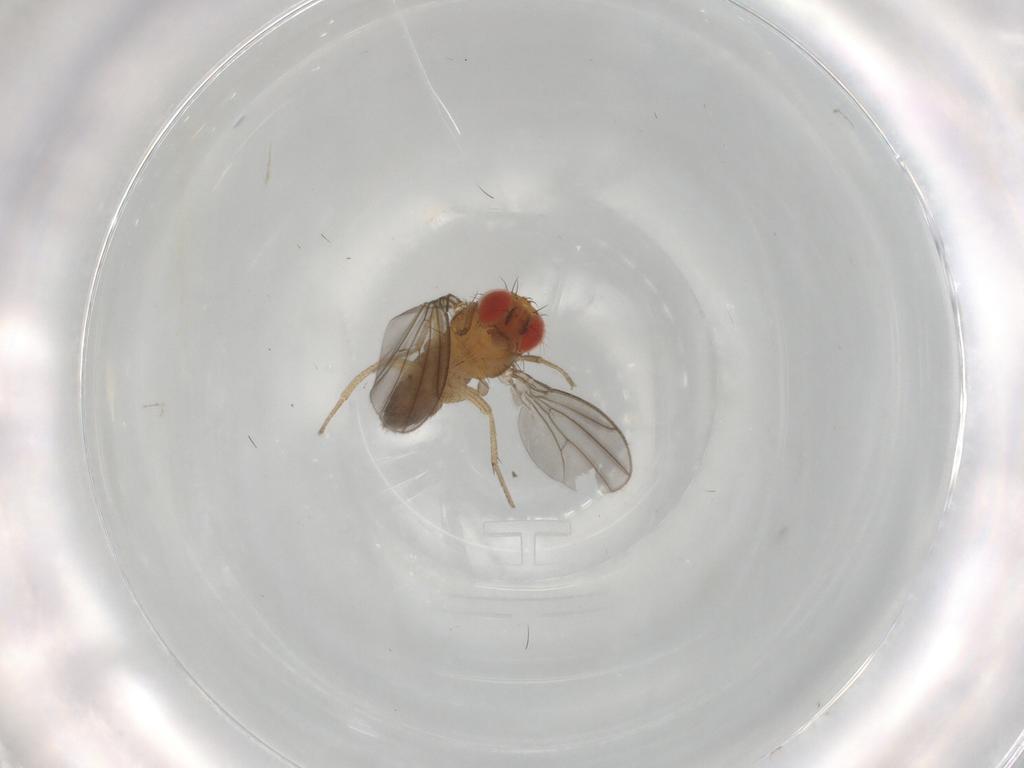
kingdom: Animalia
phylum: Arthropoda
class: Insecta
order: Diptera
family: Drosophilidae
